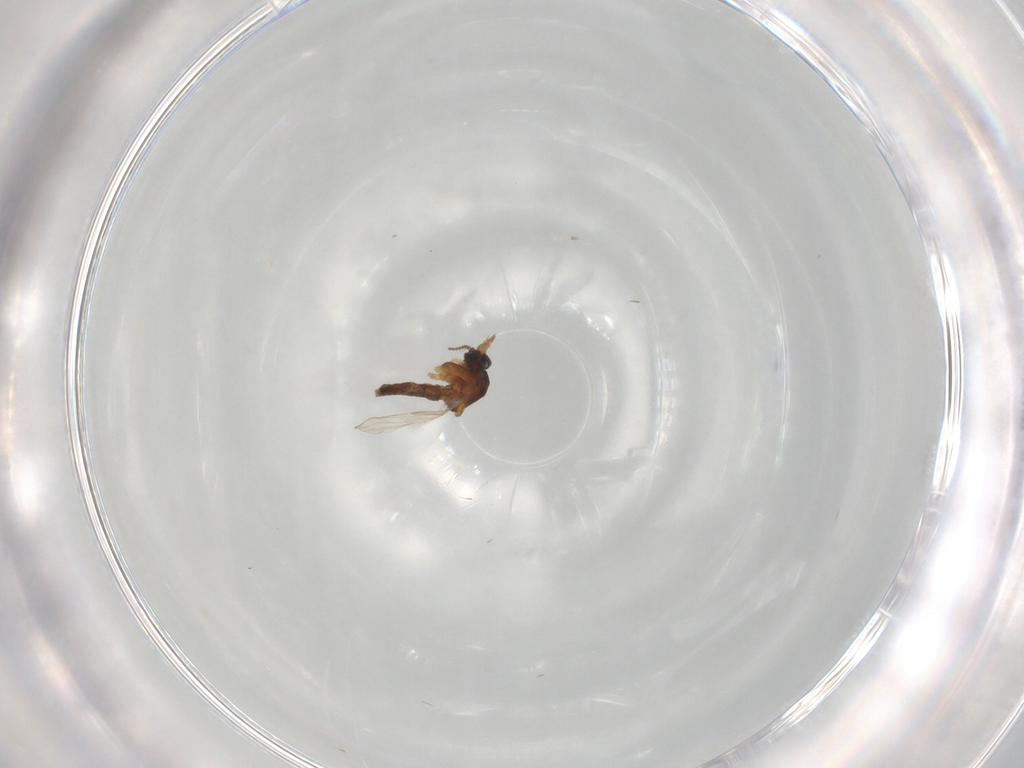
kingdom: Animalia
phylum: Arthropoda
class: Insecta
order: Diptera
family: Ceratopogonidae
